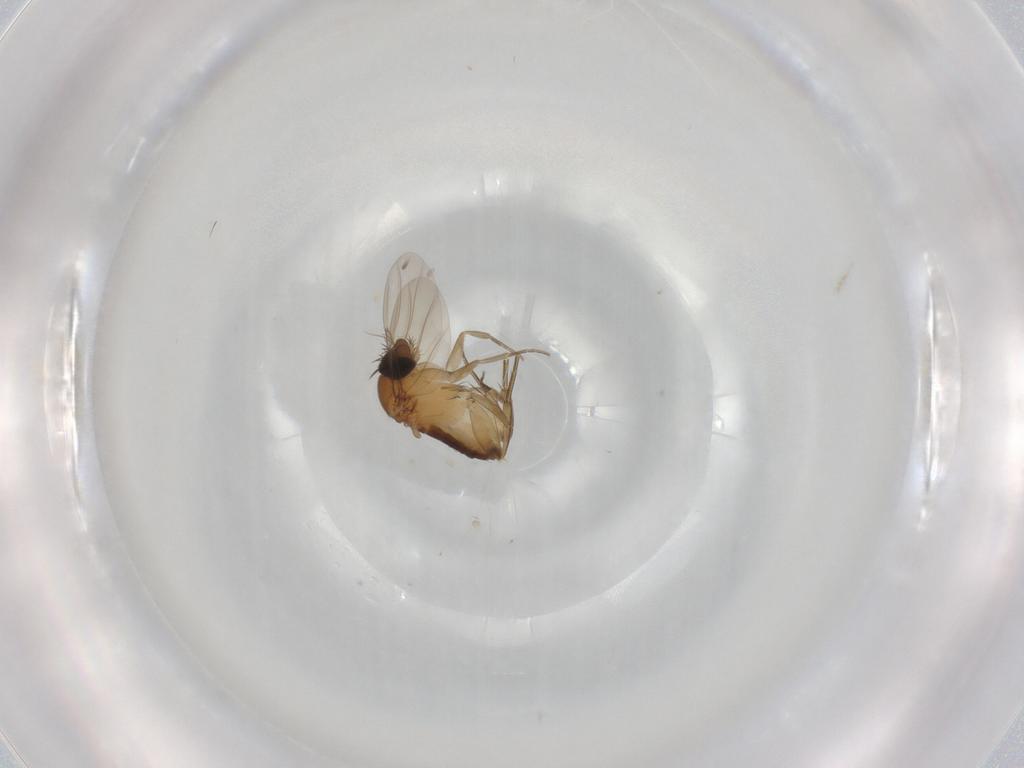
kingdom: Animalia
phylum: Arthropoda
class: Insecta
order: Diptera
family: Phoridae
